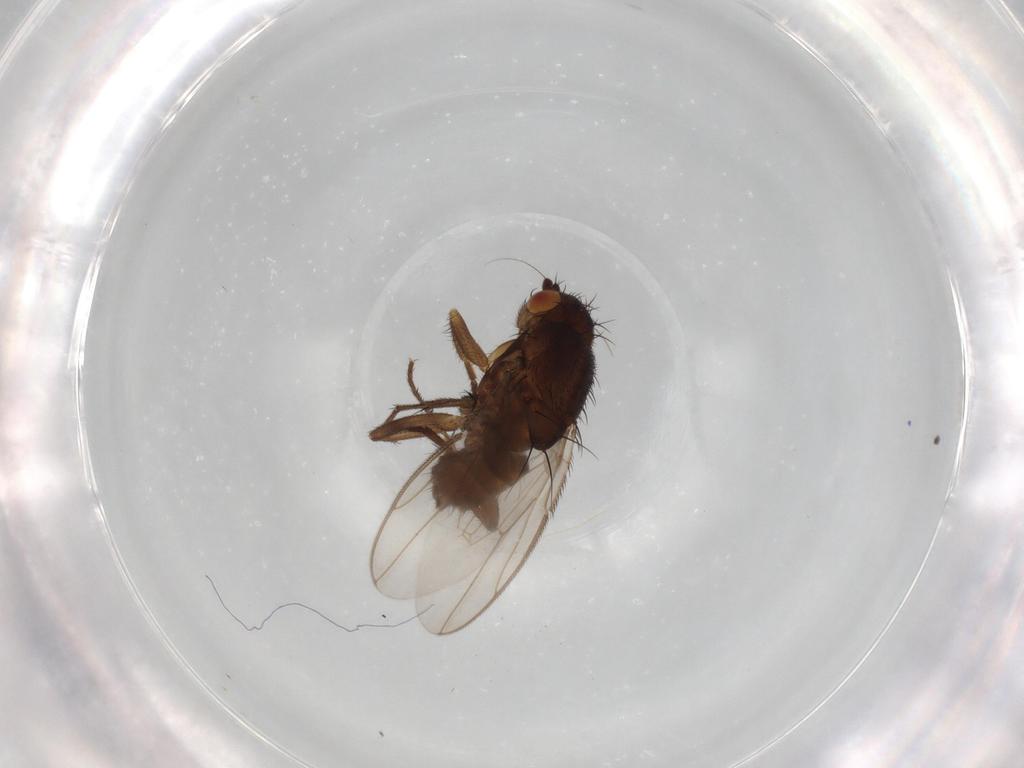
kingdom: Animalia
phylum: Arthropoda
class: Insecta
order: Diptera
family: Sphaeroceridae
